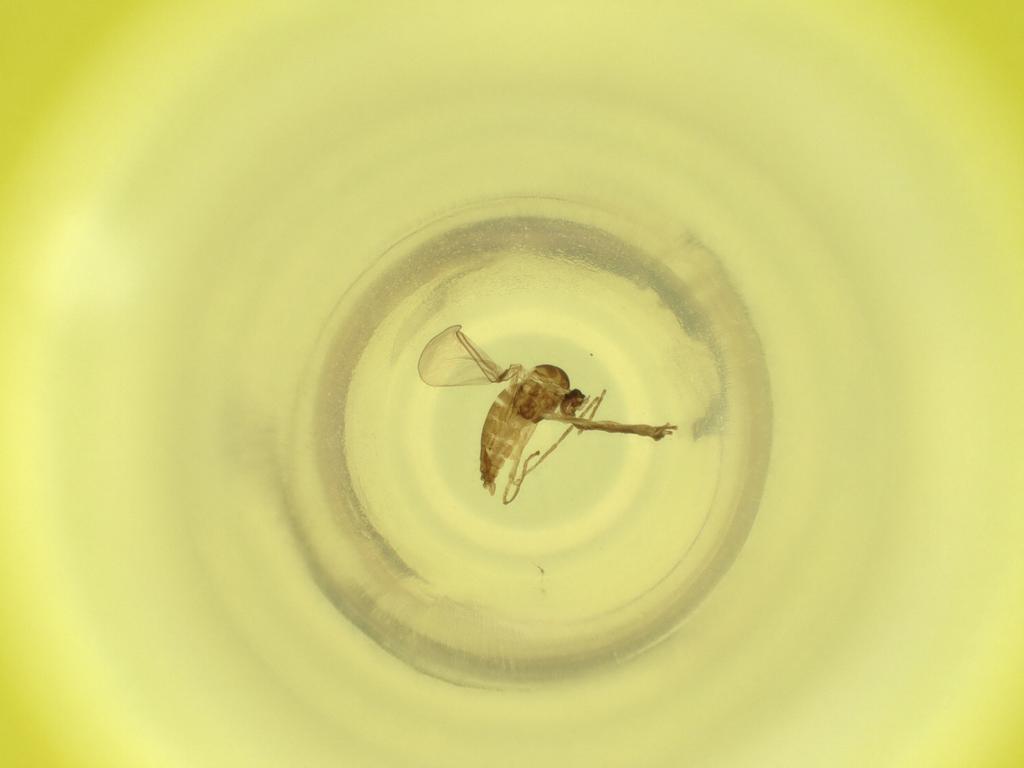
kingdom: Animalia
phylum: Arthropoda
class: Insecta
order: Diptera
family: Cecidomyiidae
